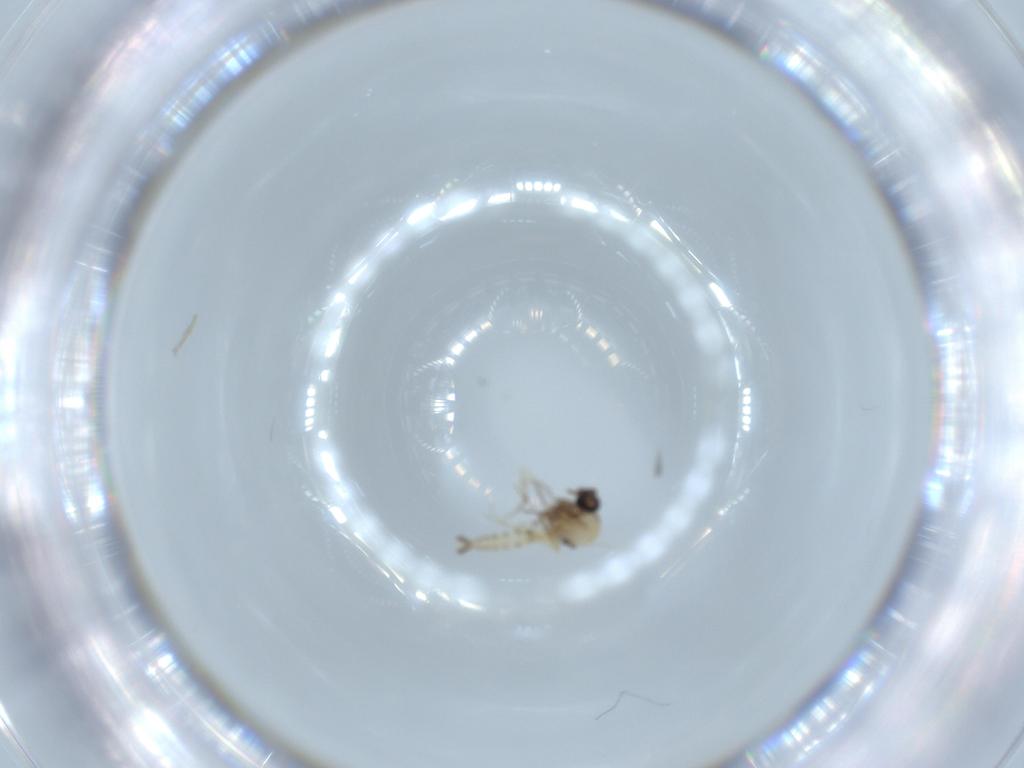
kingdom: Animalia
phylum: Arthropoda
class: Insecta
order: Diptera
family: Ceratopogonidae
